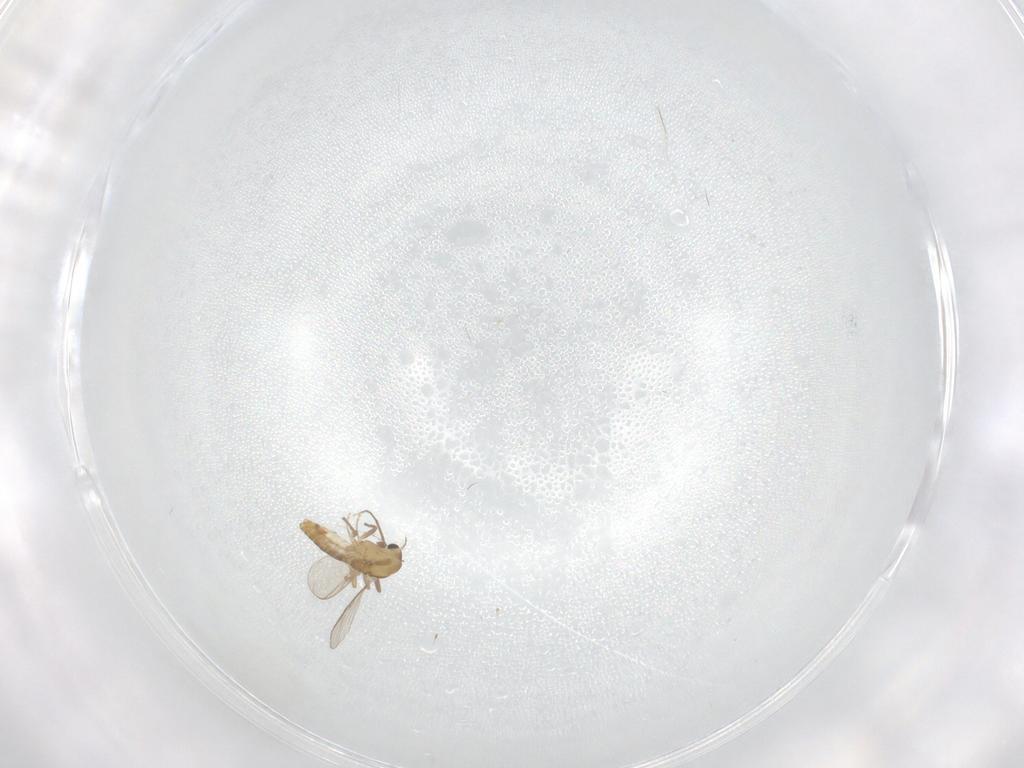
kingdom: Animalia
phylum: Arthropoda
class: Insecta
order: Diptera
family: Chironomidae
